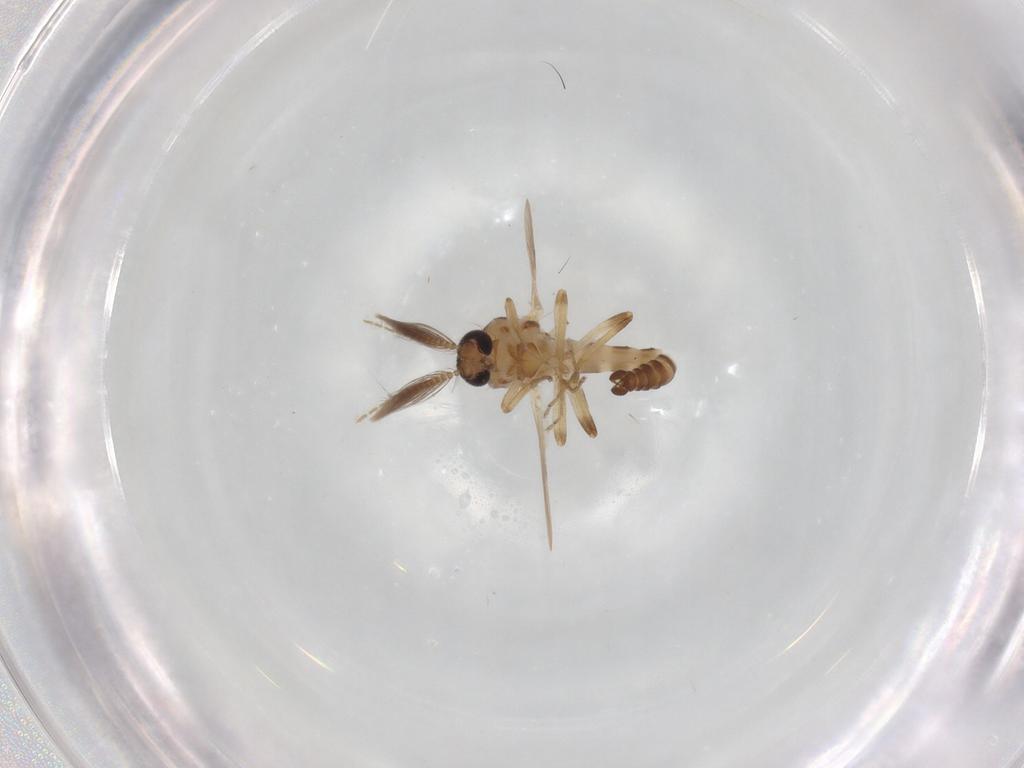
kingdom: Animalia
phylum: Arthropoda
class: Insecta
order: Diptera
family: Ceratopogonidae
